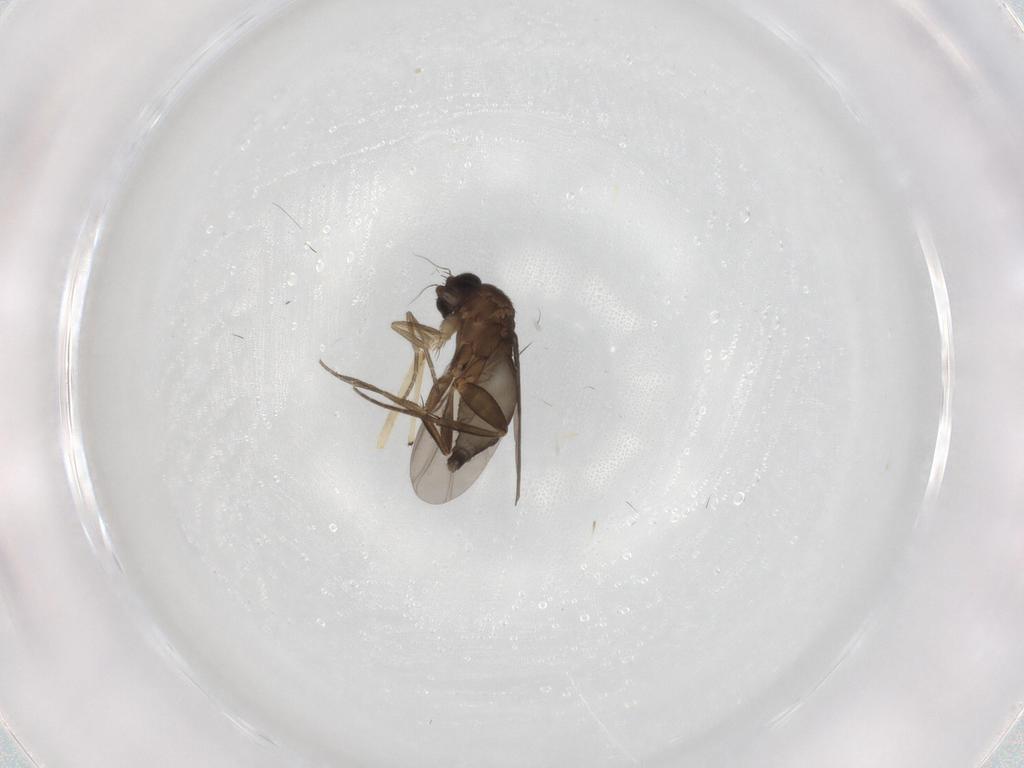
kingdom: Animalia
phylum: Arthropoda
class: Insecta
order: Diptera
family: Phoridae
